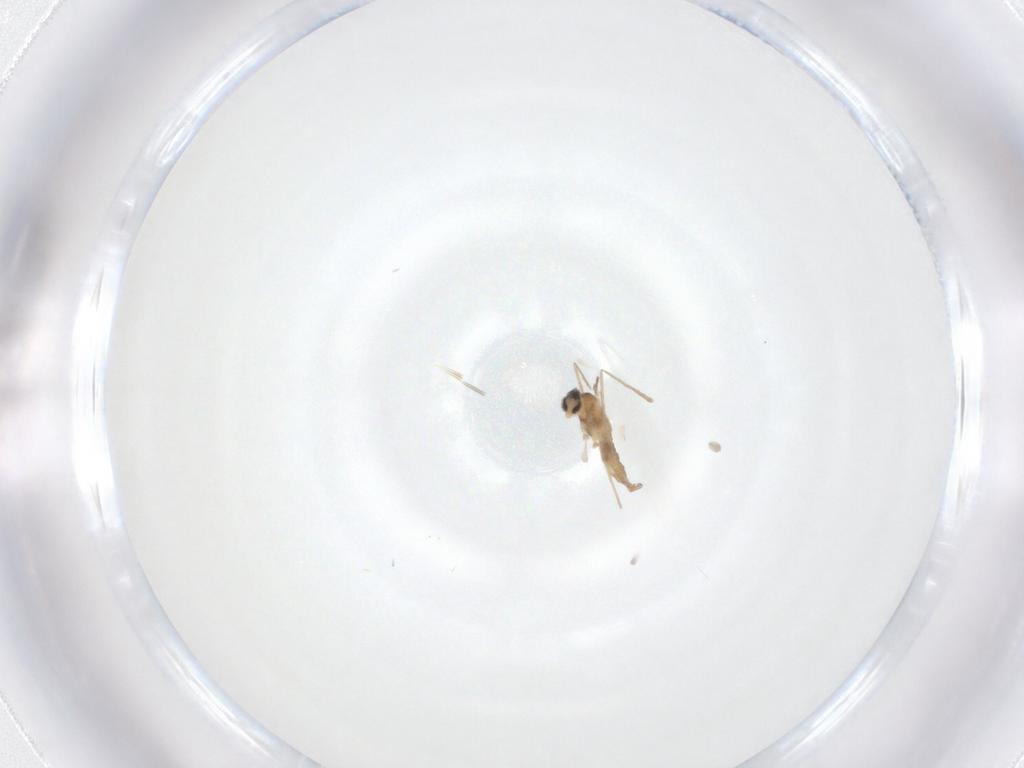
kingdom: Animalia
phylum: Arthropoda
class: Insecta
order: Diptera
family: Cecidomyiidae
